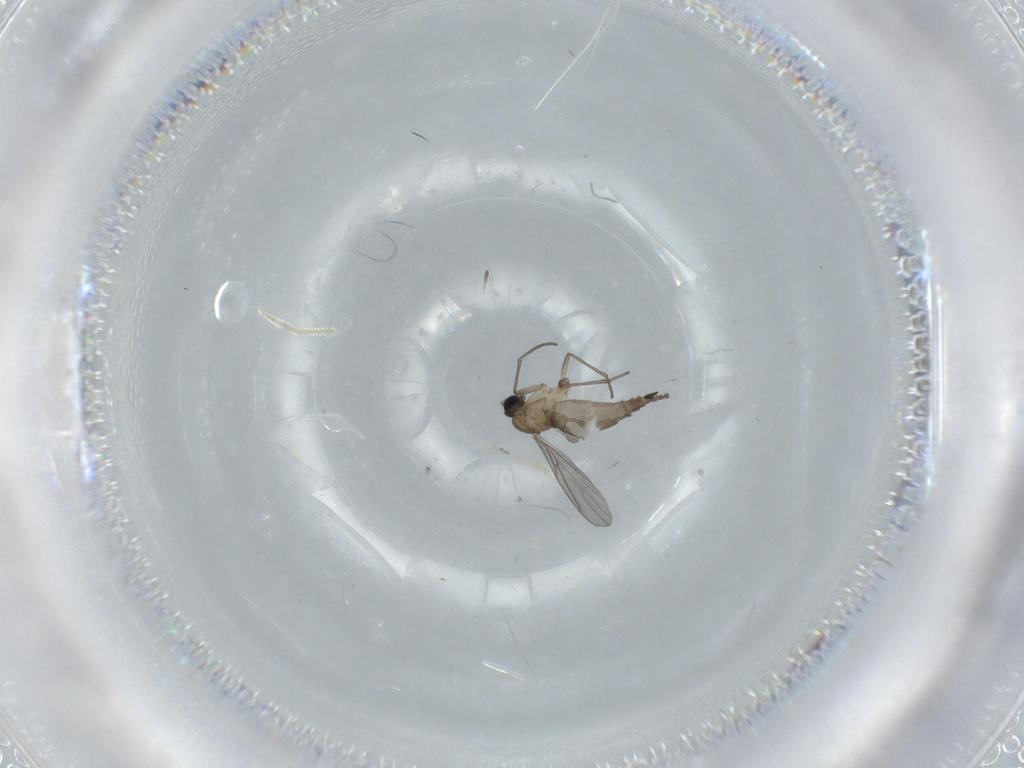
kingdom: Animalia
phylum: Arthropoda
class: Insecta
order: Diptera
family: Sciaridae
